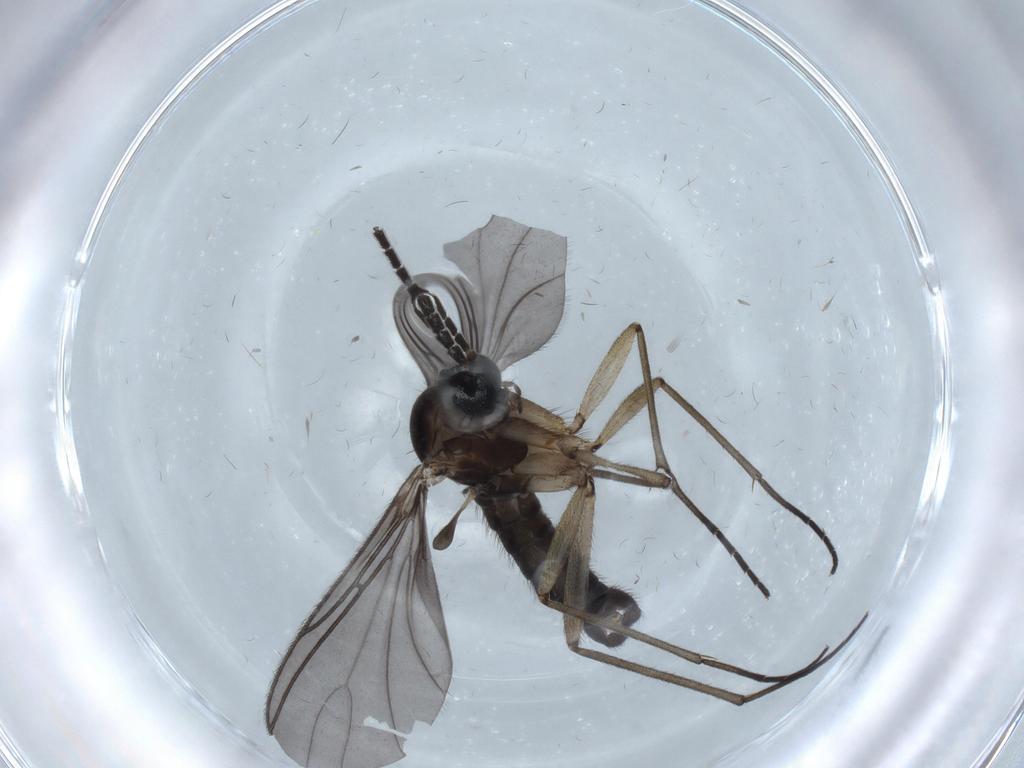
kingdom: Animalia
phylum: Arthropoda
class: Insecta
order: Diptera
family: Sciaridae
